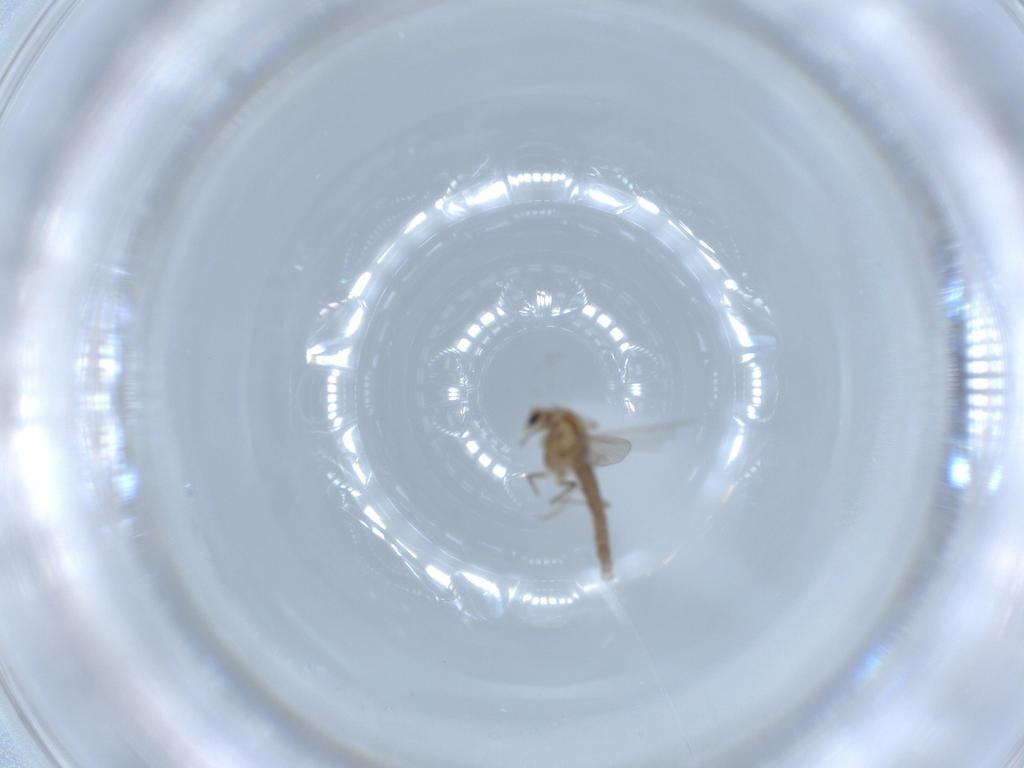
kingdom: Animalia
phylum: Arthropoda
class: Insecta
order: Diptera
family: Chironomidae
